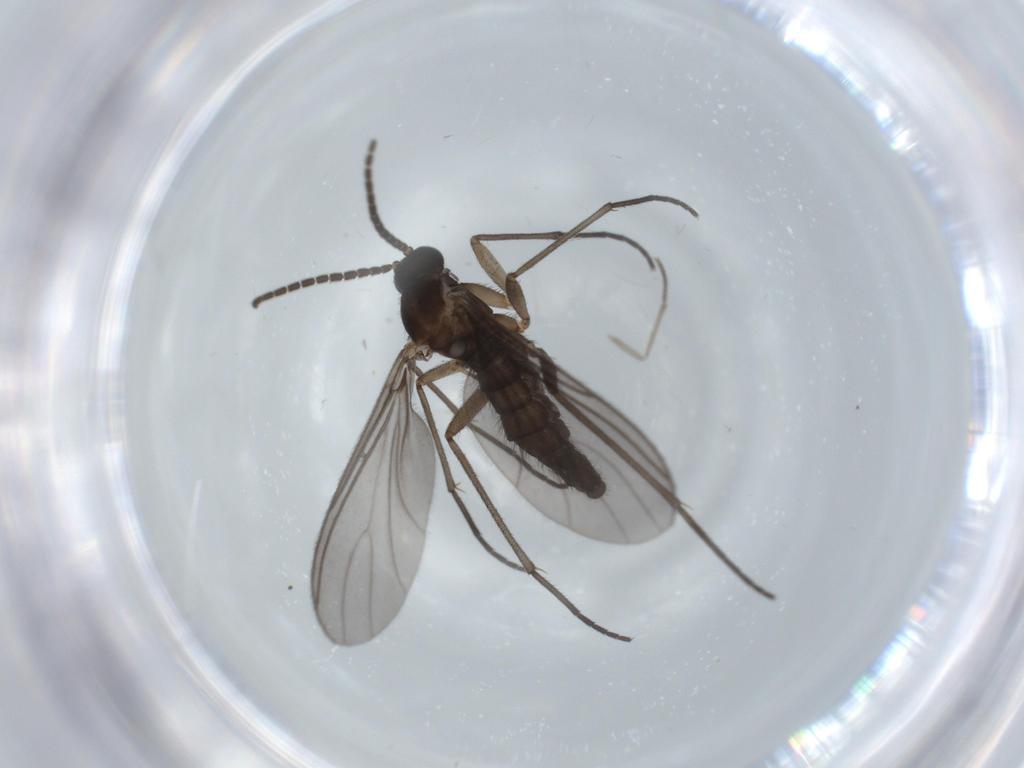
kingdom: Animalia
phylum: Arthropoda
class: Insecta
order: Diptera
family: Sciaridae
